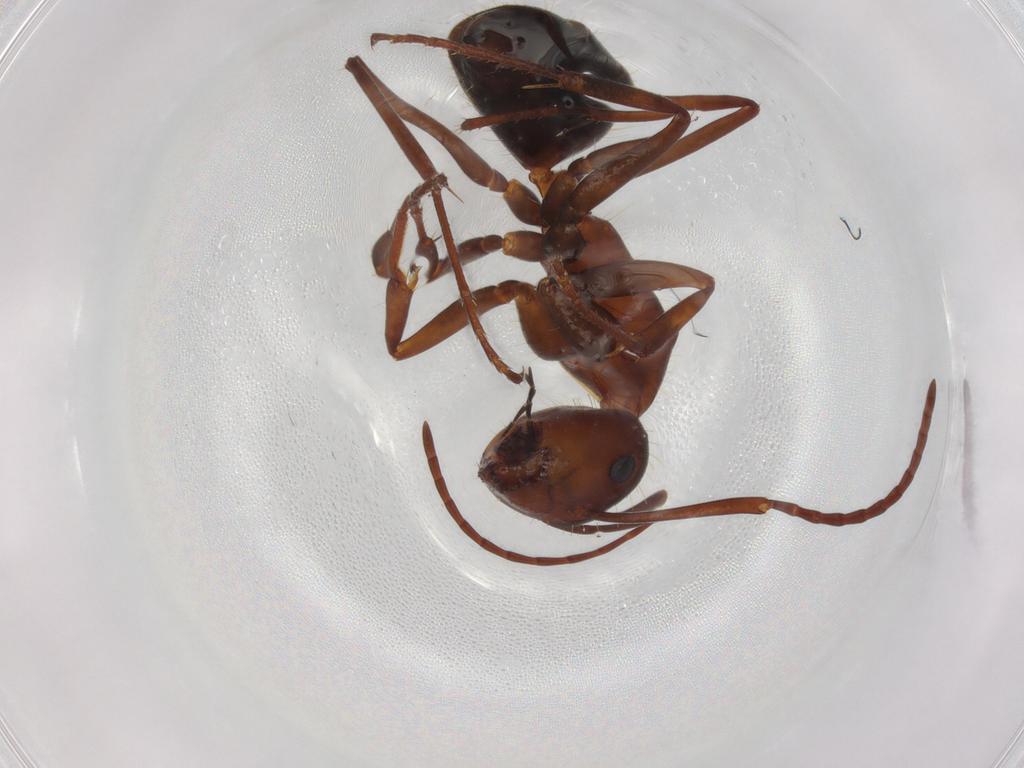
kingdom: Animalia
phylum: Arthropoda
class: Insecta
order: Hymenoptera
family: Formicidae
